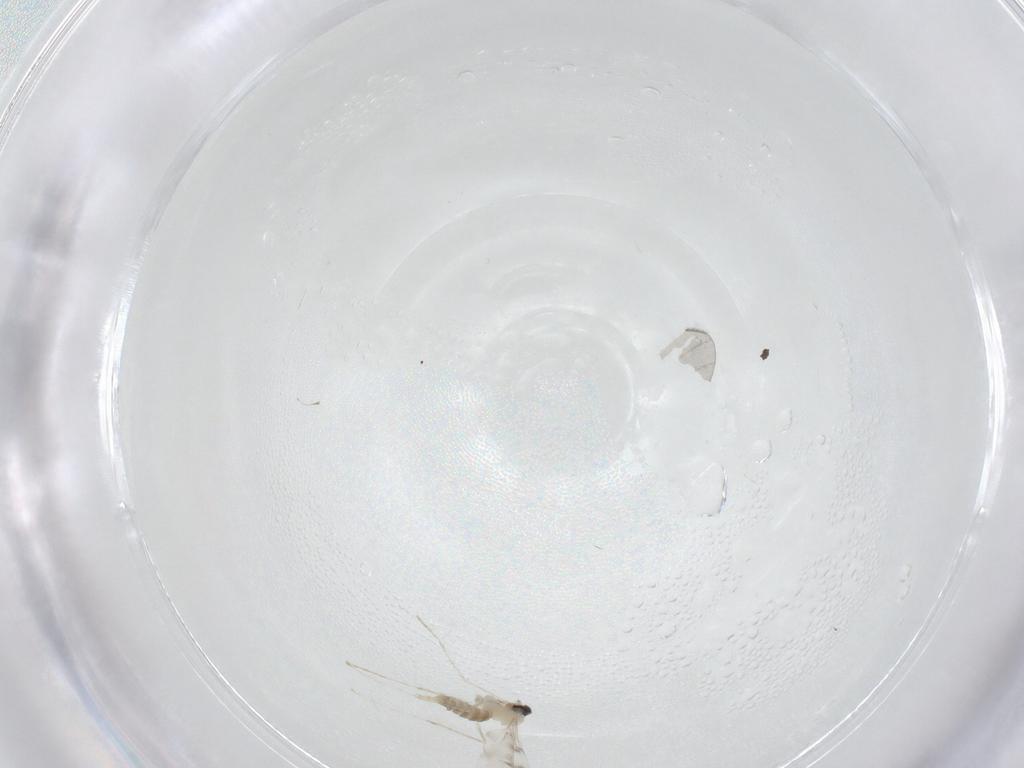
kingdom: Animalia
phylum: Arthropoda
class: Insecta
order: Diptera
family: Cecidomyiidae
